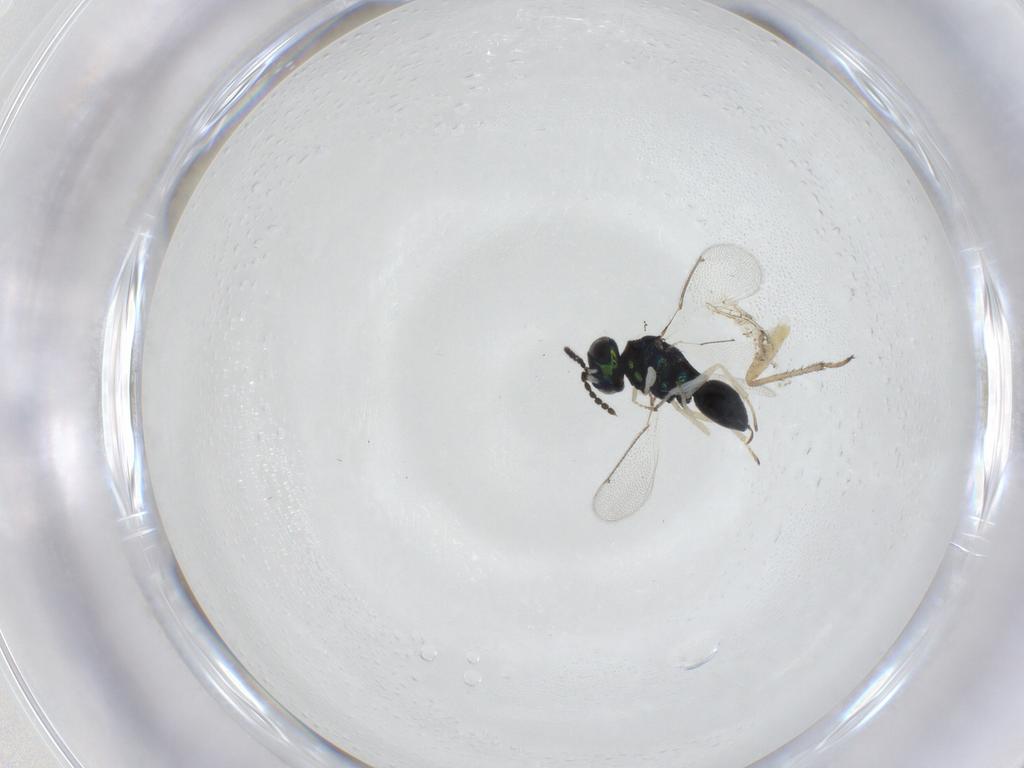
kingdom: Animalia
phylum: Arthropoda
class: Insecta
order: Hymenoptera
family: Eulophidae
